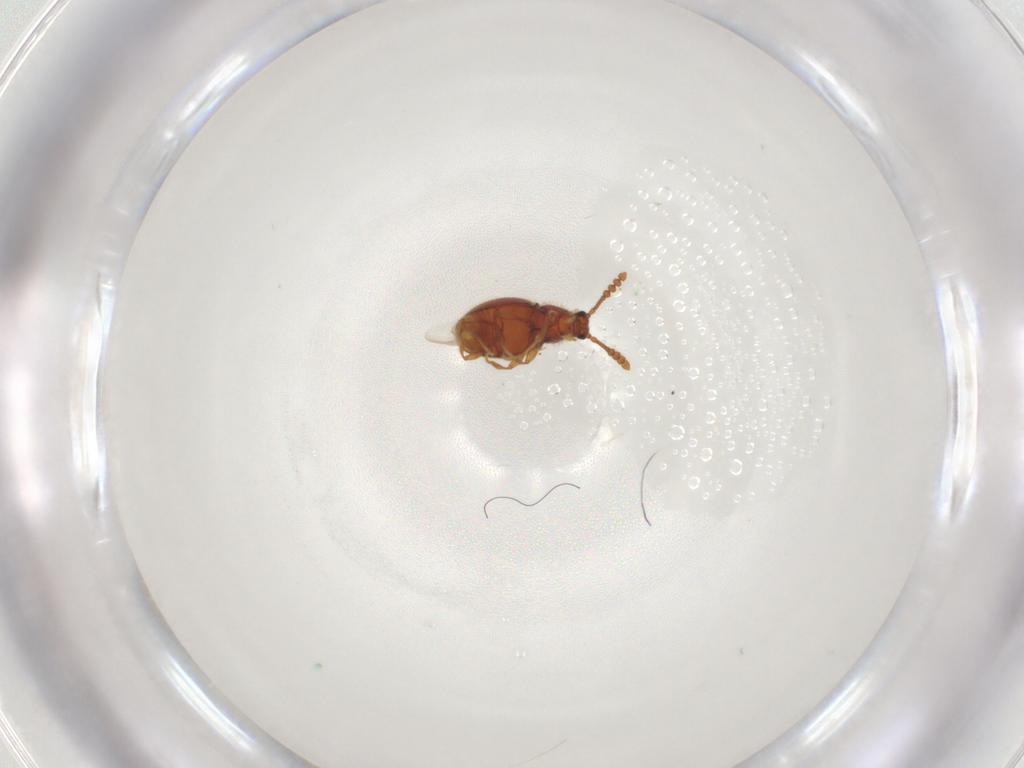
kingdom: Animalia
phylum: Arthropoda
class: Insecta
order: Coleoptera
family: Staphylinidae
